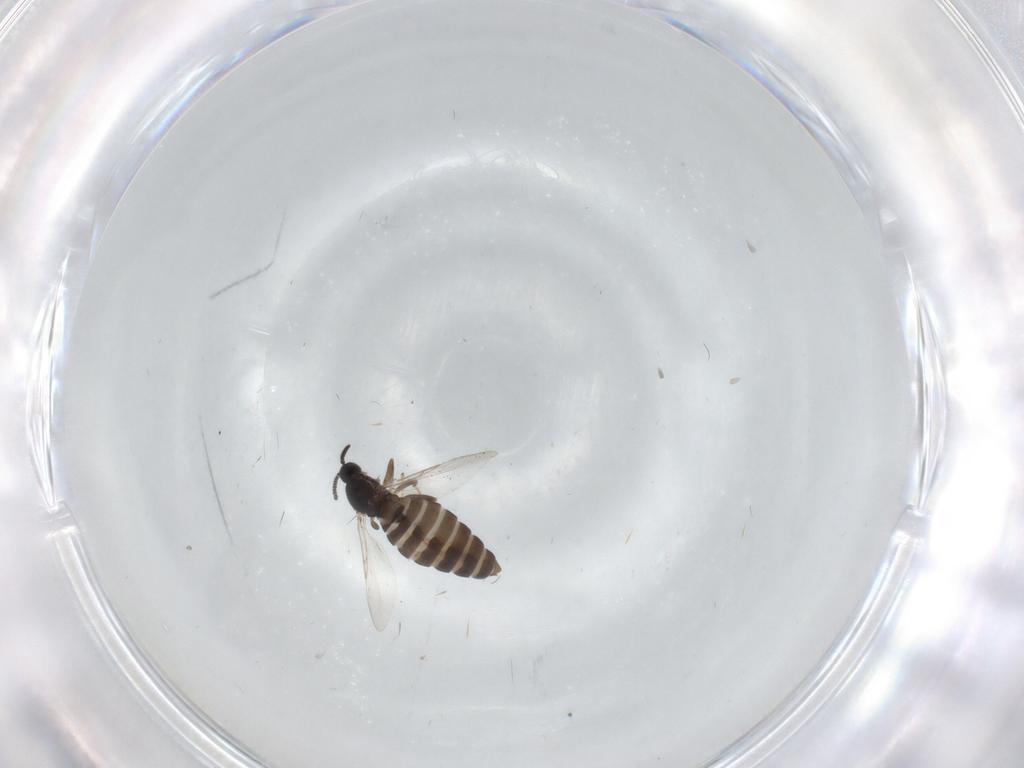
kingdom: Animalia
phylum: Arthropoda
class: Insecta
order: Diptera
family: Scatopsidae
